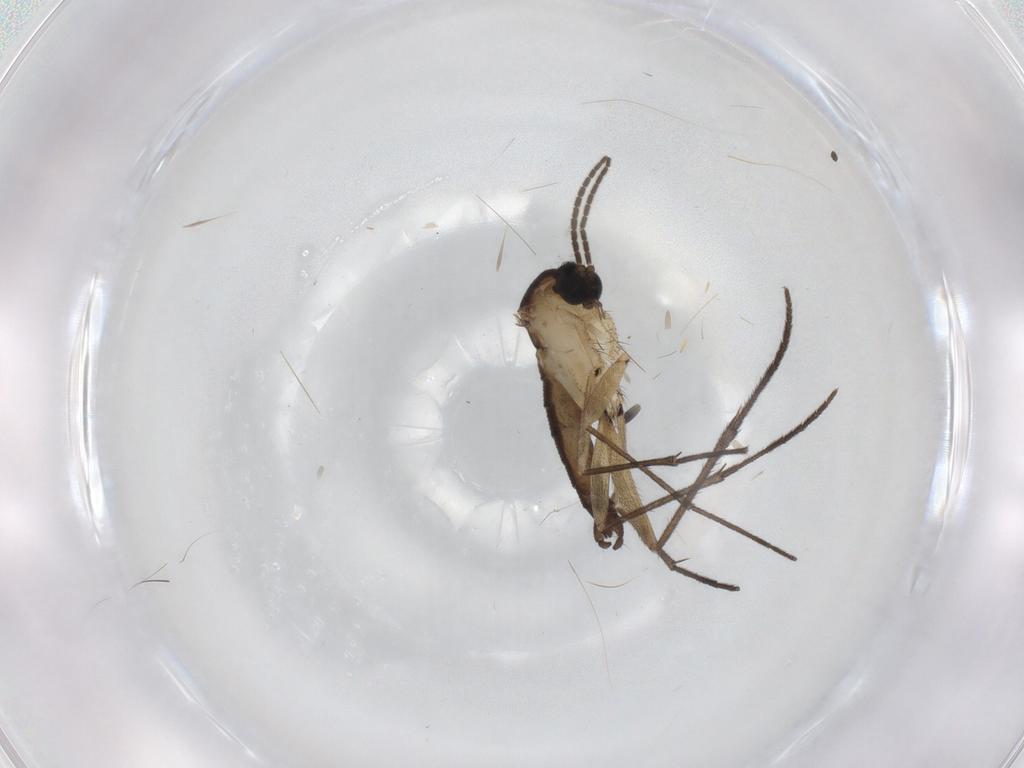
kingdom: Animalia
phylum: Arthropoda
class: Insecta
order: Diptera
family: Sciaridae
